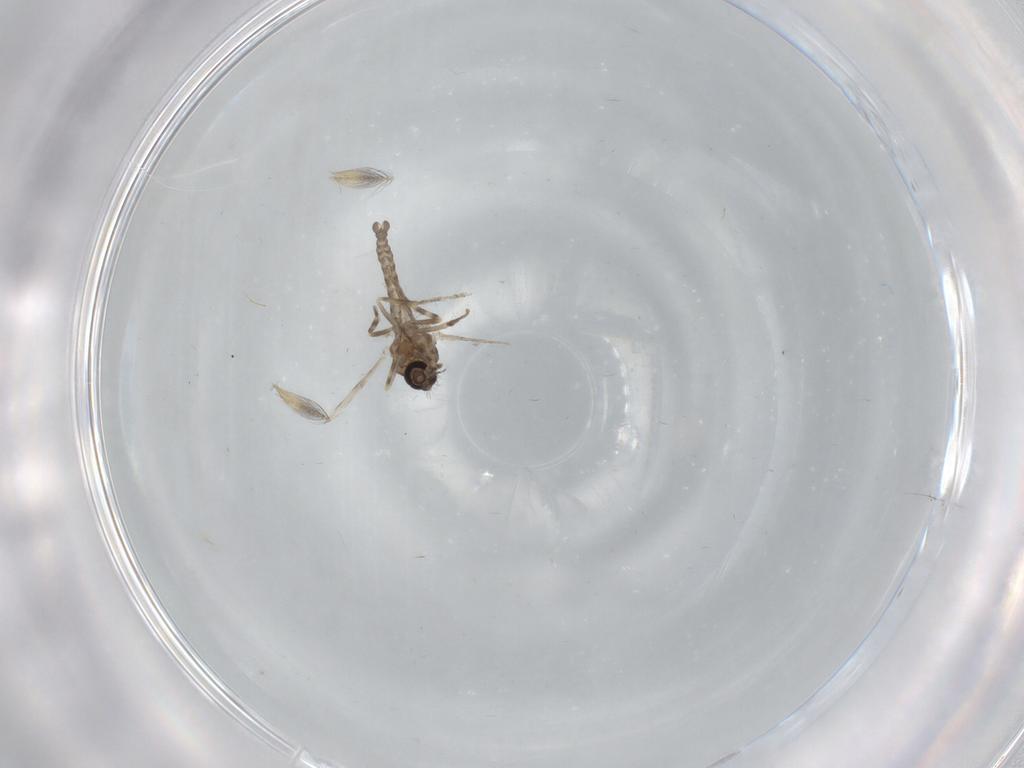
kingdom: Animalia
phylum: Arthropoda
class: Insecta
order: Diptera
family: Ceratopogonidae
